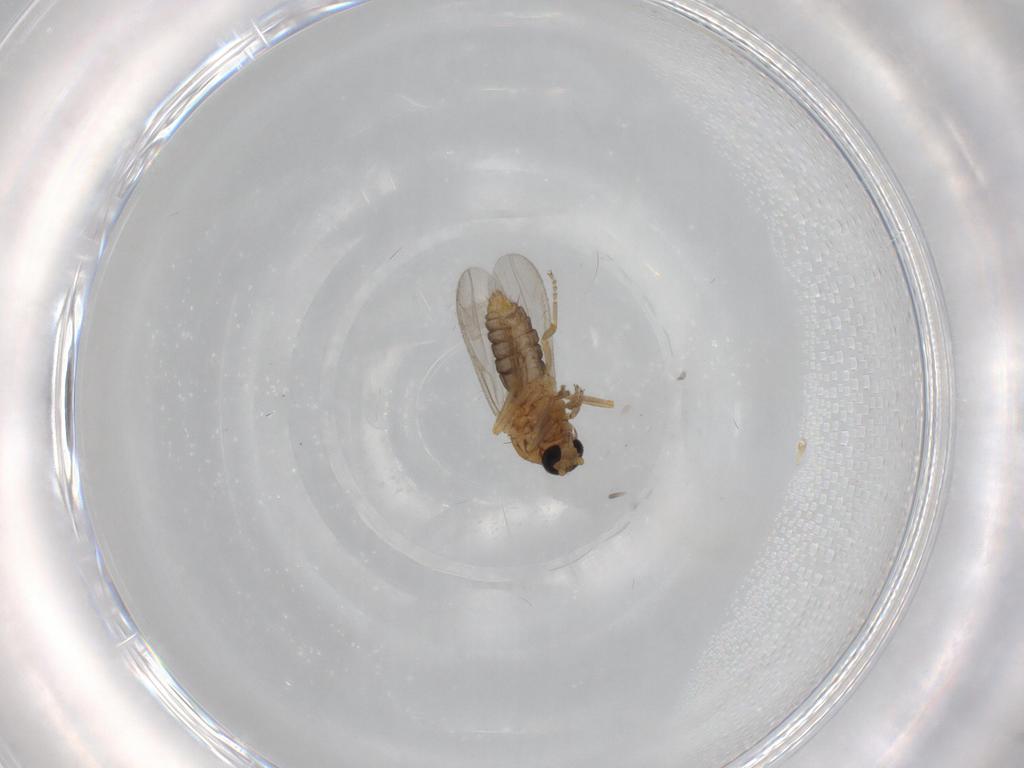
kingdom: Animalia
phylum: Arthropoda
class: Insecta
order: Diptera
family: Ceratopogonidae
